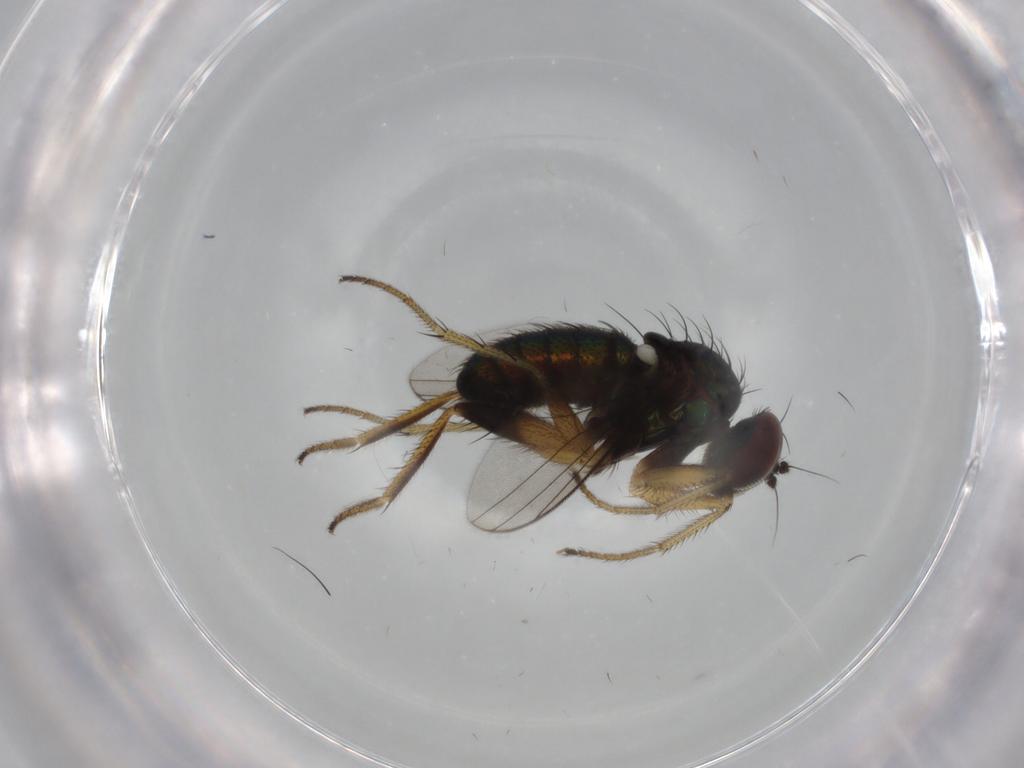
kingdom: Animalia
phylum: Arthropoda
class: Insecta
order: Diptera
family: Dolichopodidae
